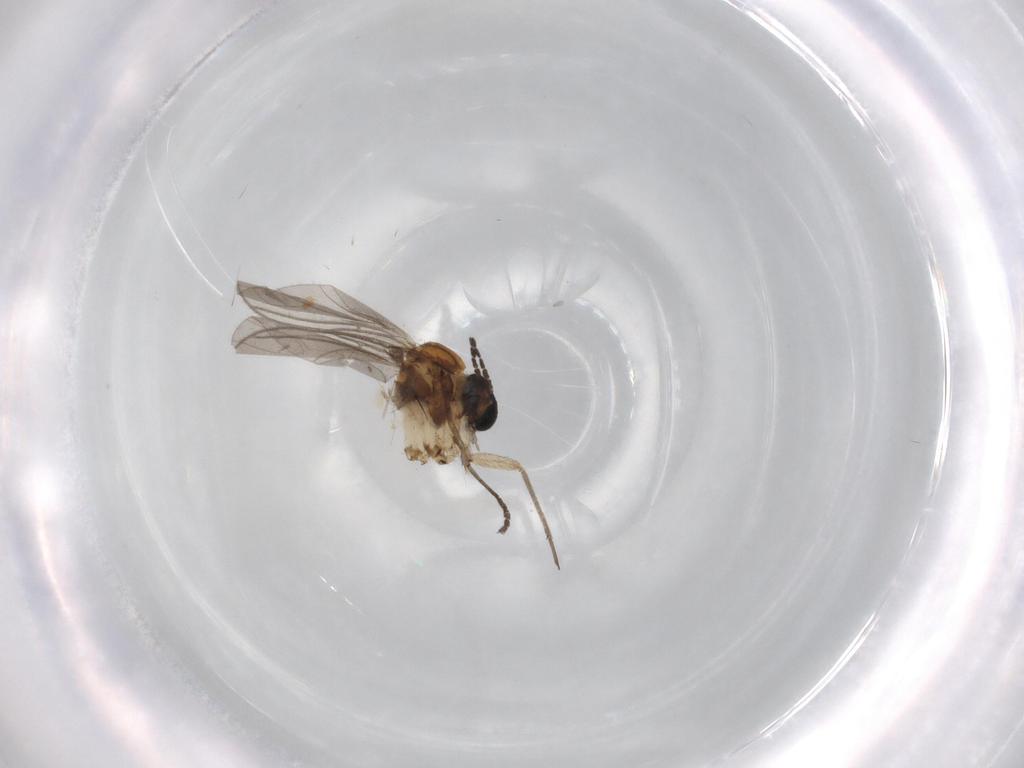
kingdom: Animalia
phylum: Arthropoda
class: Insecta
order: Diptera
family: Sciaridae
